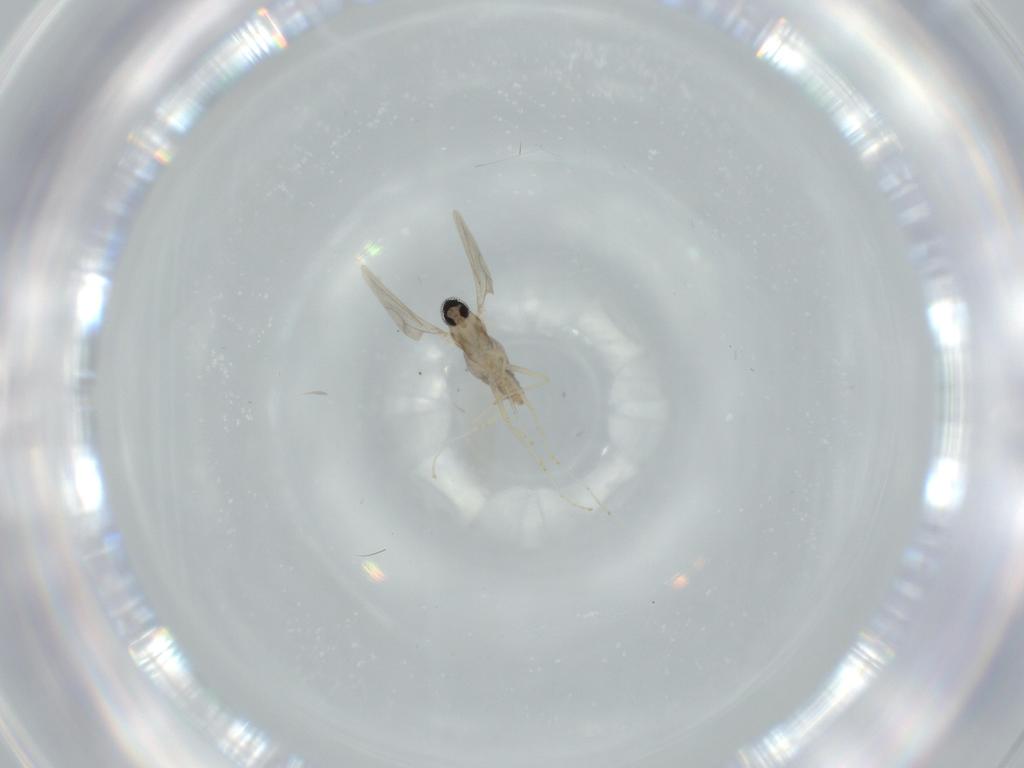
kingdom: Animalia
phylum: Arthropoda
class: Insecta
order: Diptera
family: Cecidomyiidae
